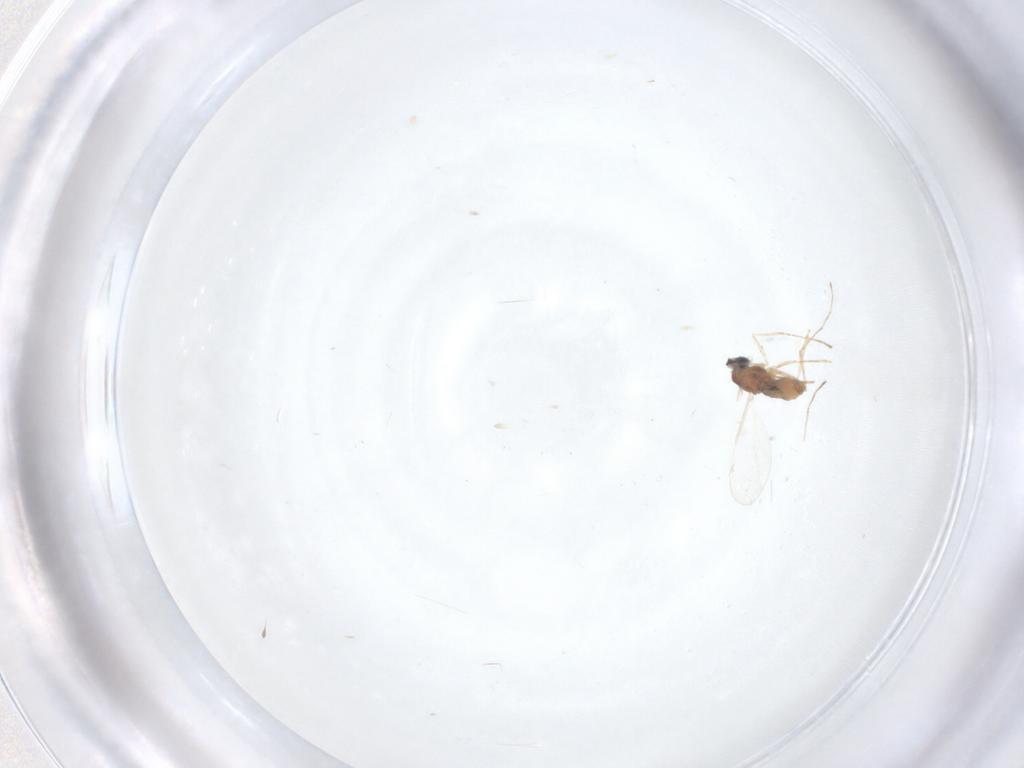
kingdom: Animalia
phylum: Arthropoda
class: Insecta
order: Diptera
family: Cecidomyiidae
